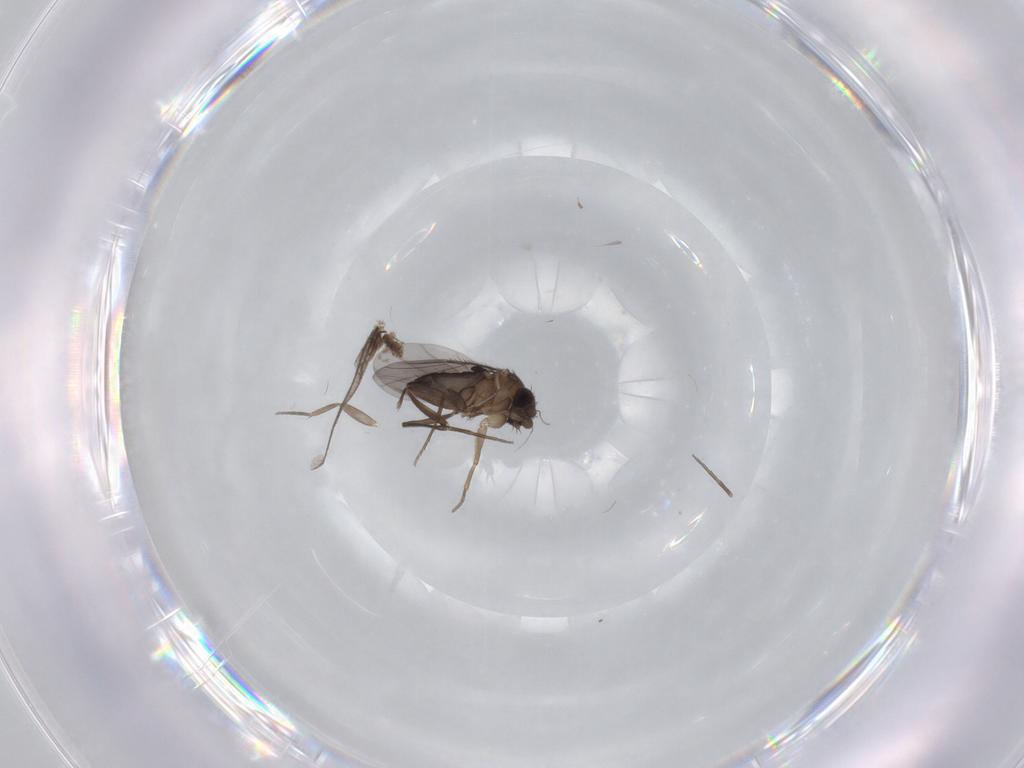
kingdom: Animalia
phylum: Arthropoda
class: Insecta
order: Diptera
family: Phoridae
